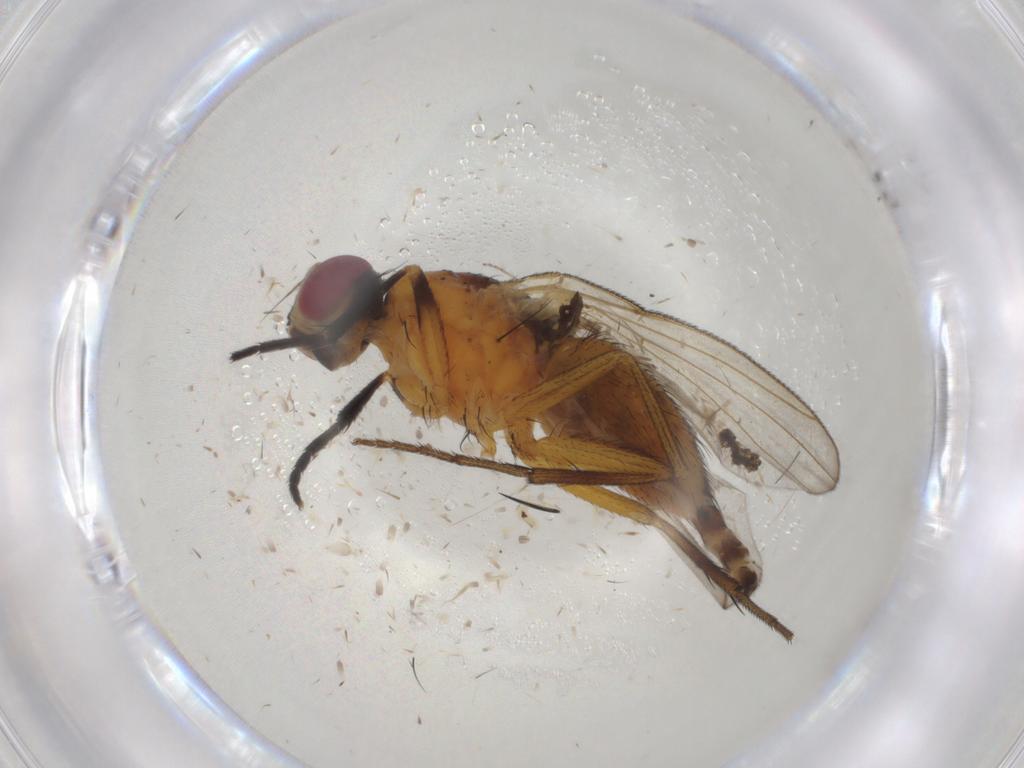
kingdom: Animalia
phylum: Arthropoda
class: Insecta
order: Diptera
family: Muscidae
